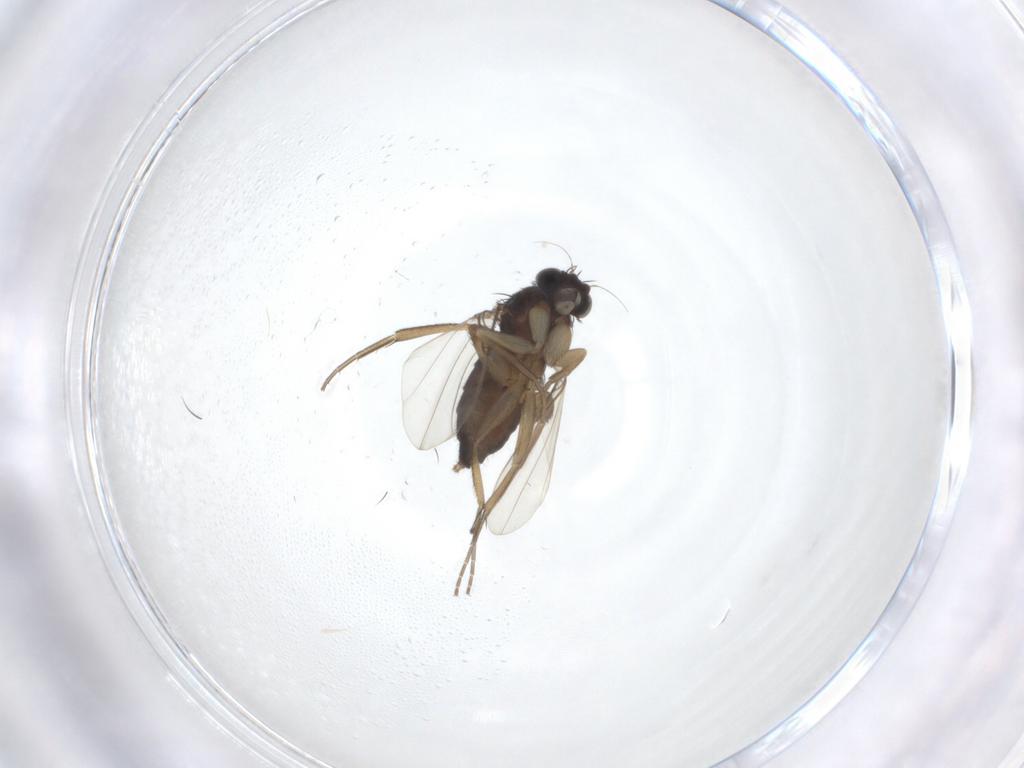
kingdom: Animalia
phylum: Arthropoda
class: Insecta
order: Diptera
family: Phoridae
